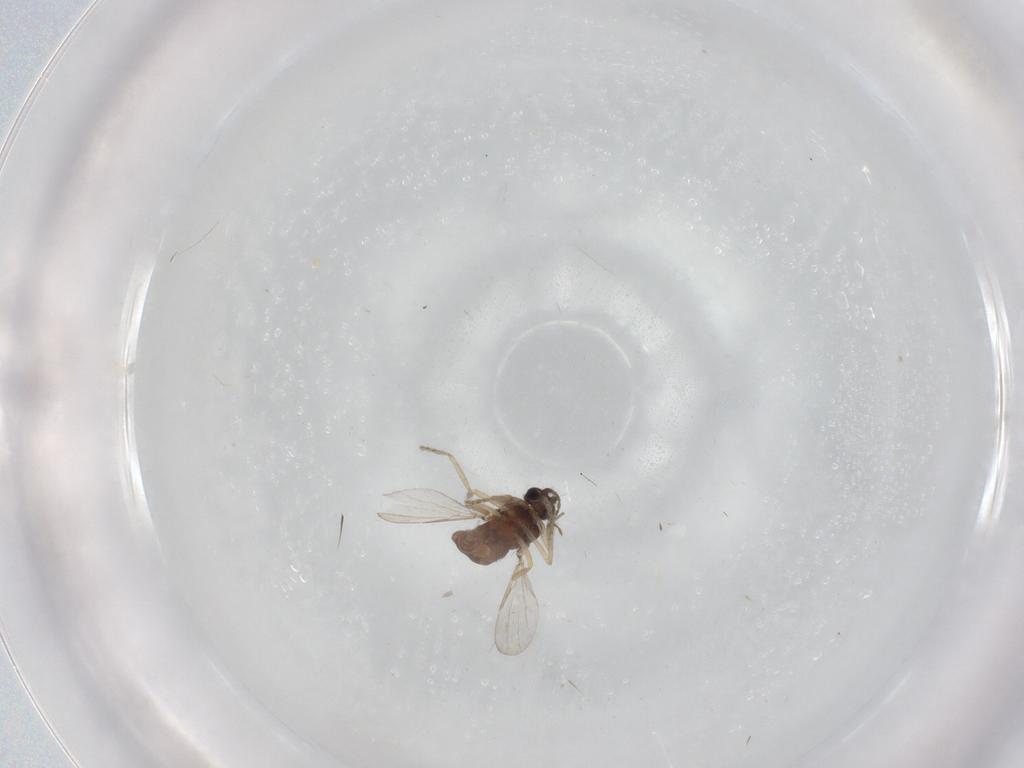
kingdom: Animalia
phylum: Arthropoda
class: Insecta
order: Diptera
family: Ceratopogonidae
